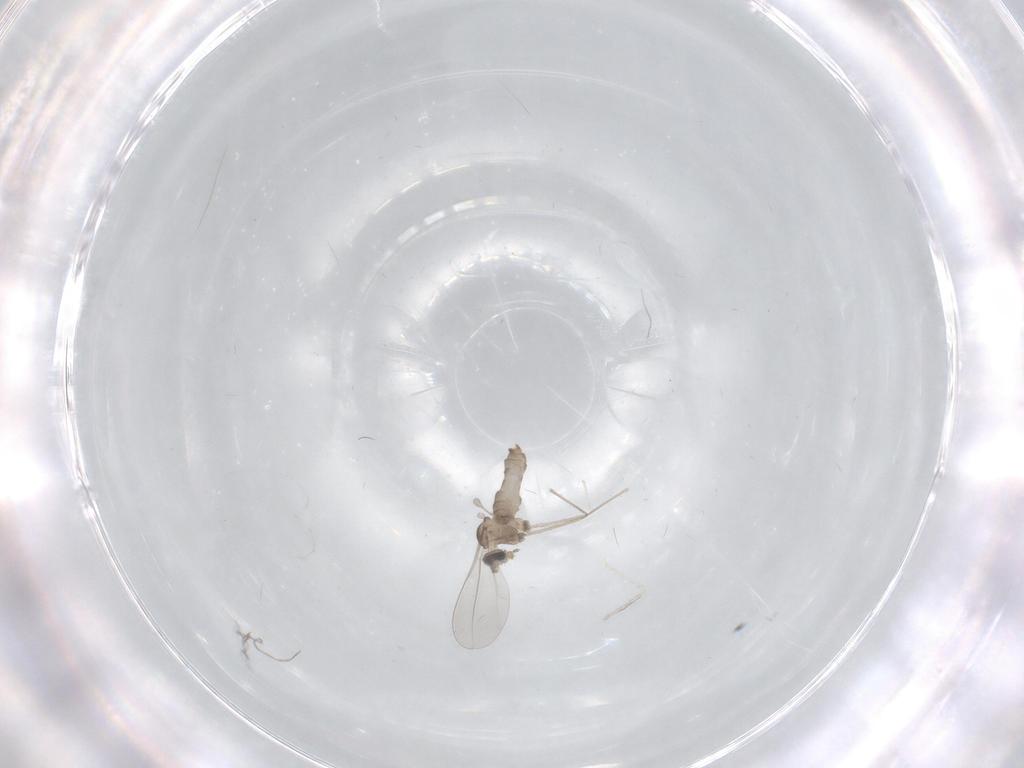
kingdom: Animalia
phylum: Arthropoda
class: Insecta
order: Diptera
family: Cecidomyiidae
